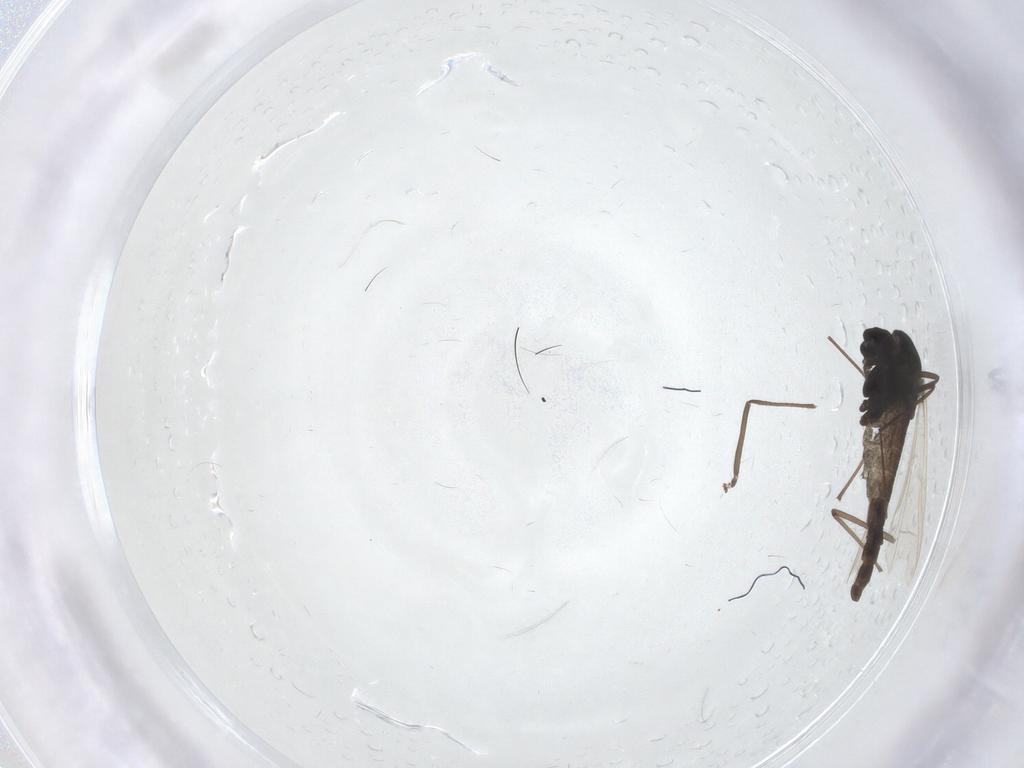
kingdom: Animalia
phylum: Arthropoda
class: Insecta
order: Diptera
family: Chironomidae
